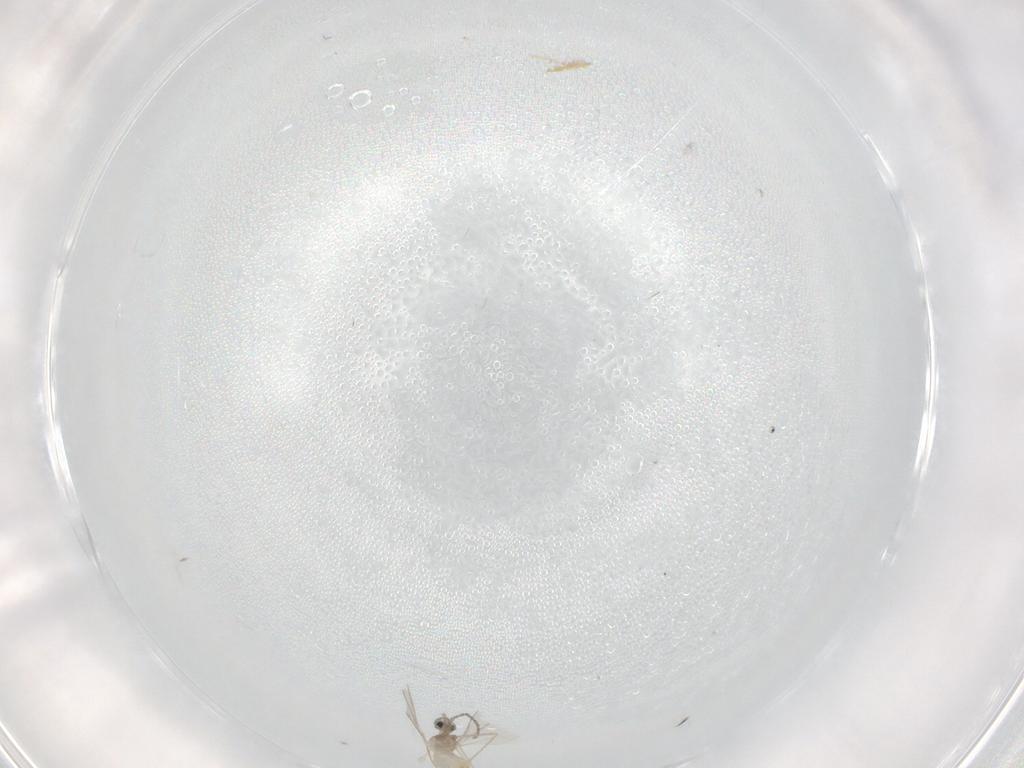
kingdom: Animalia
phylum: Arthropoda
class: Insecta
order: Diptera
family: Cecidomyiidae
